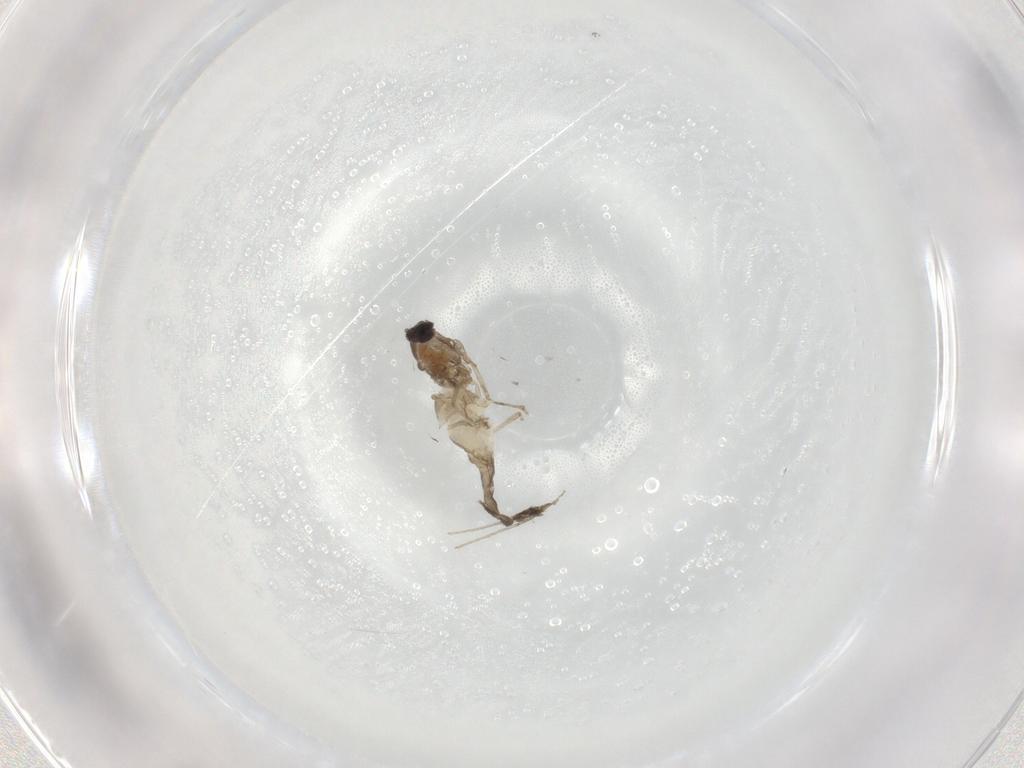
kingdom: Animalia
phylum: Arthropoda
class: Insecta
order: Diptera
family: Cecidomyiidae
